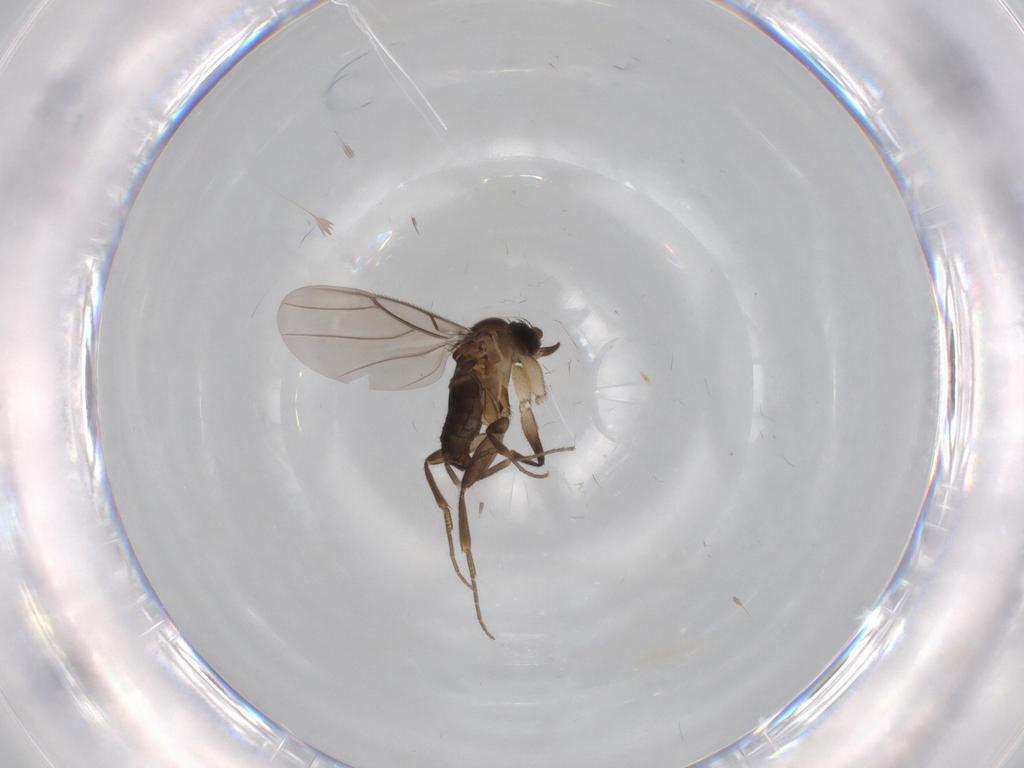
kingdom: Animalia
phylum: Arthropoda
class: Insecta
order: Diptera
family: Phoridae
